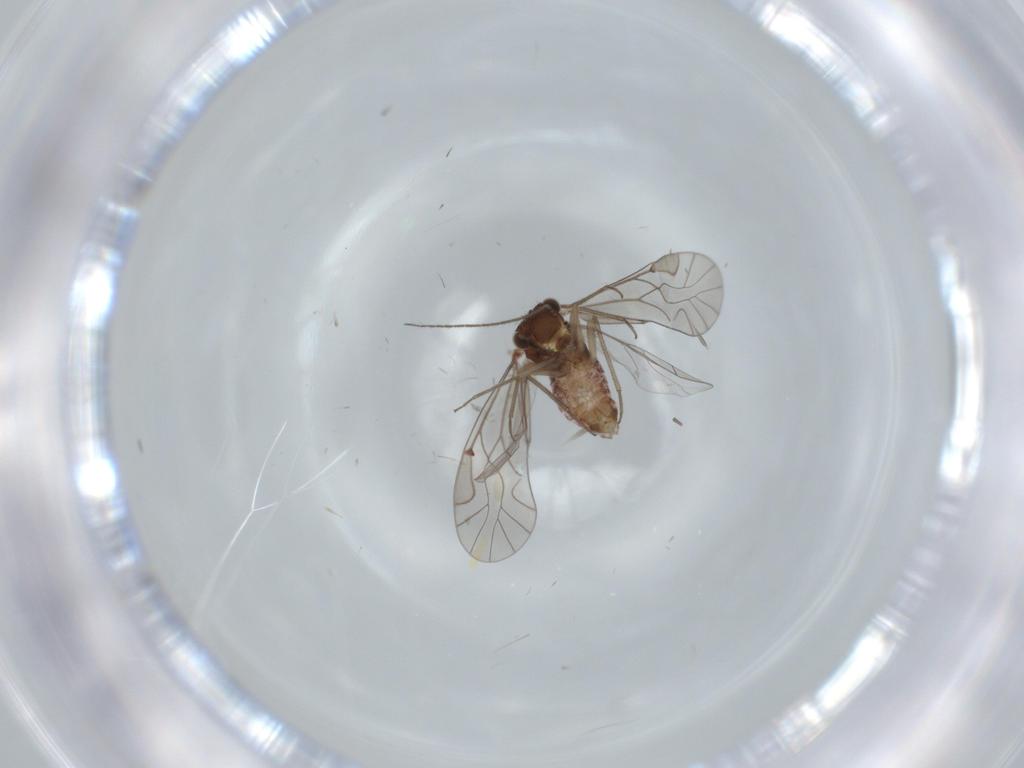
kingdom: Animalia
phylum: Arthropoda
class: Insecta
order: Psocodea
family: Lachesillidae
